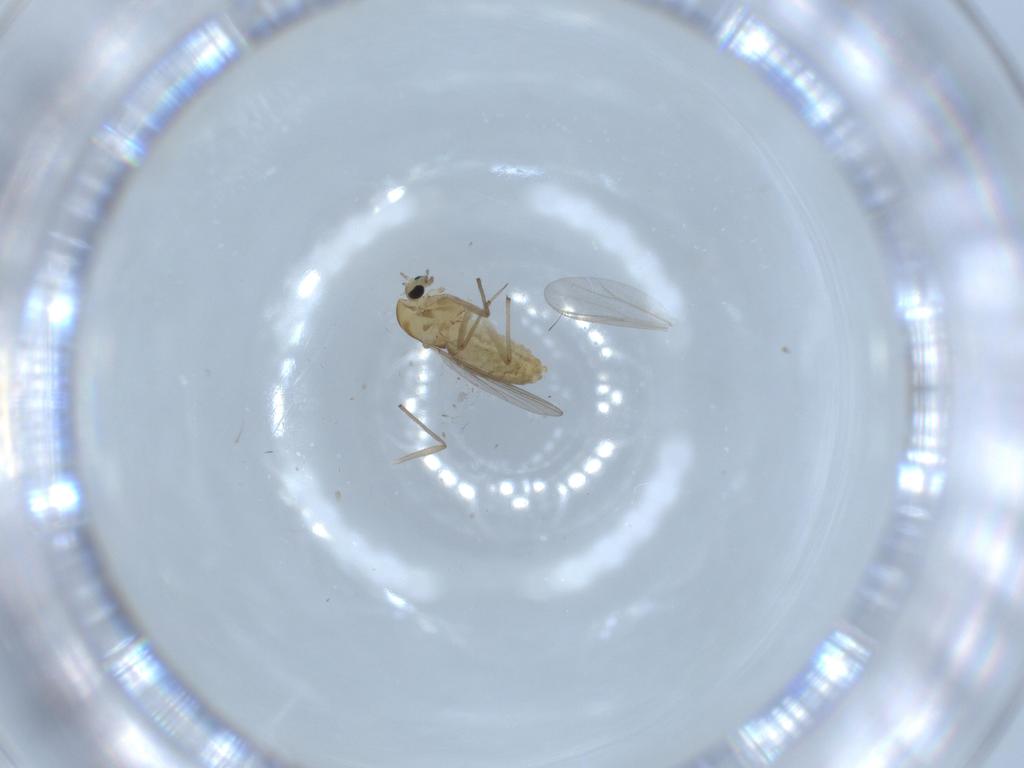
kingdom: Animalia
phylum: Arthropoda
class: Insecta
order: Diptera
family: Chironomidae
